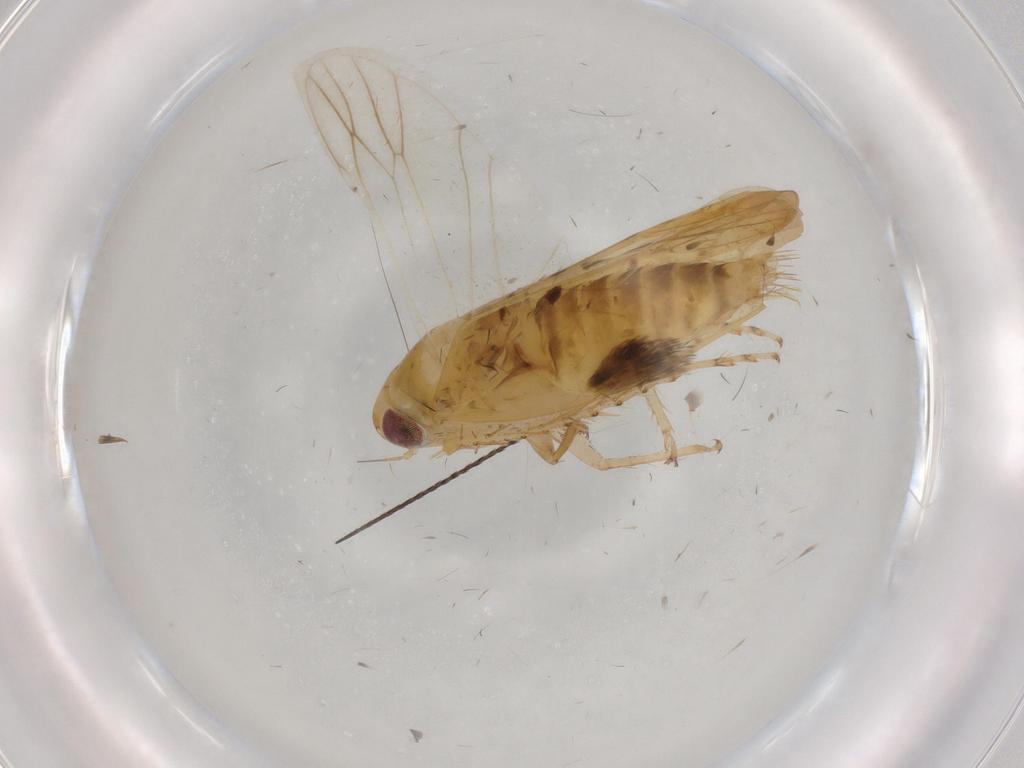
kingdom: Animalia
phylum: Arthropoda
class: Insecta
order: Hemiptera
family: Cicadellidae
